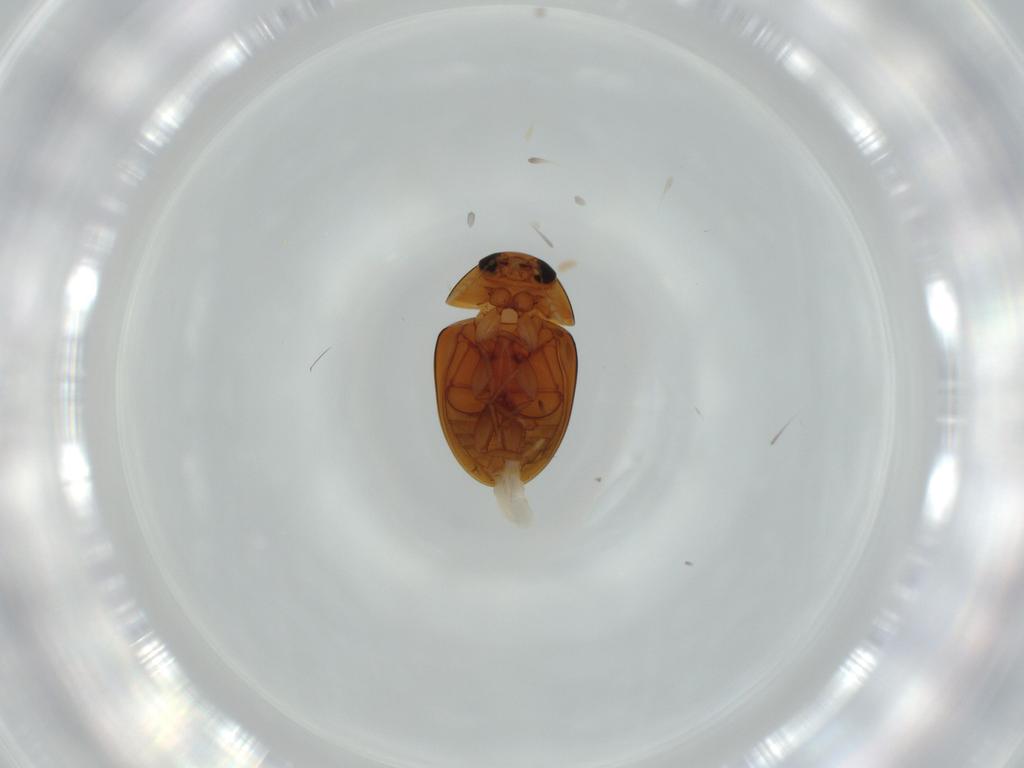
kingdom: Animalia
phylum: Arthropoda
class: Insecta
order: Coleoptera
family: Phalacridae
